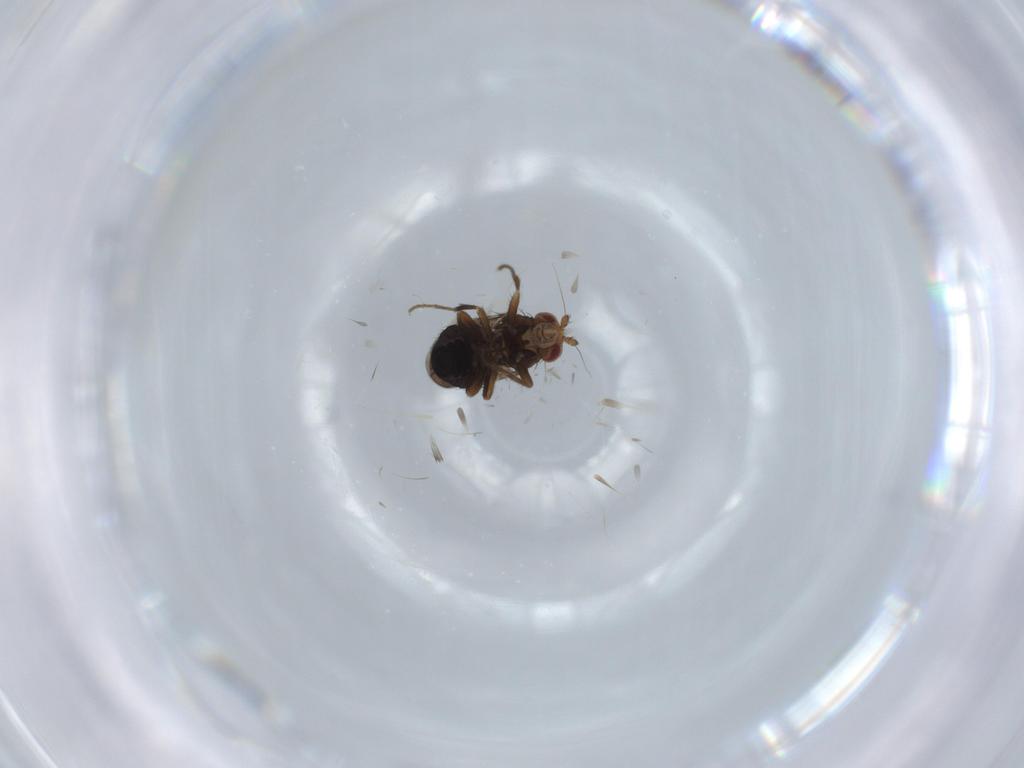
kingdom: Animalia
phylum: Arthropoda
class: Insecta
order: Diptera
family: Sphaeroceridae
